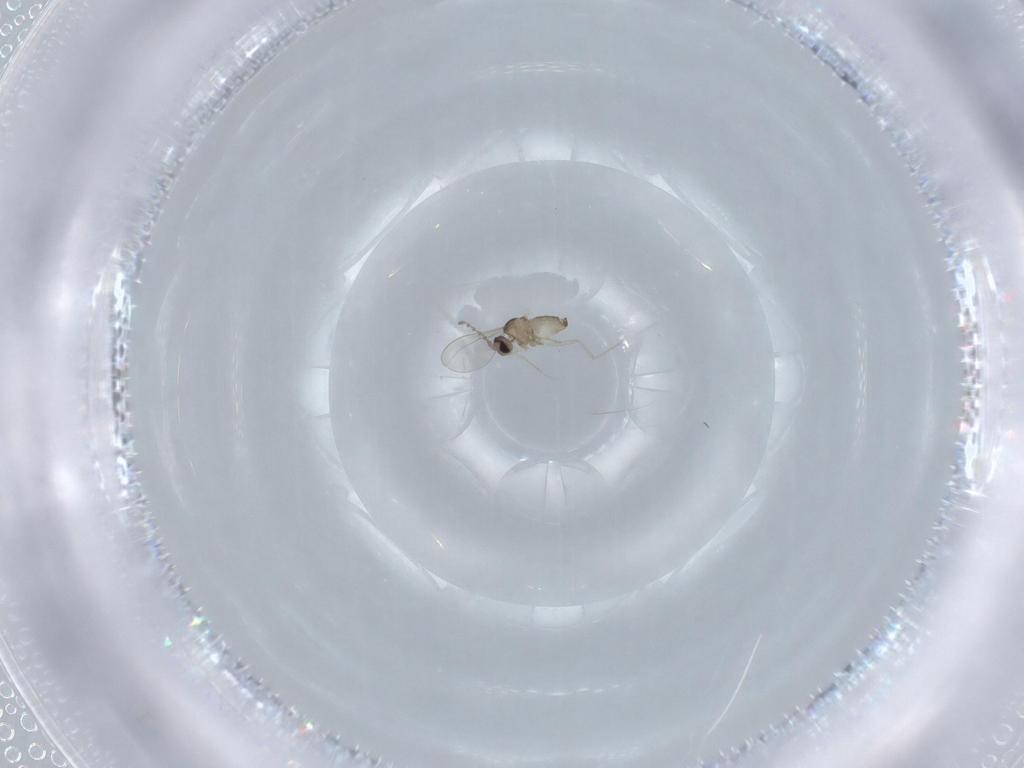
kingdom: Animalia
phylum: Arthropoda
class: Insecta
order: Diptera
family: Cecidomyiidae
